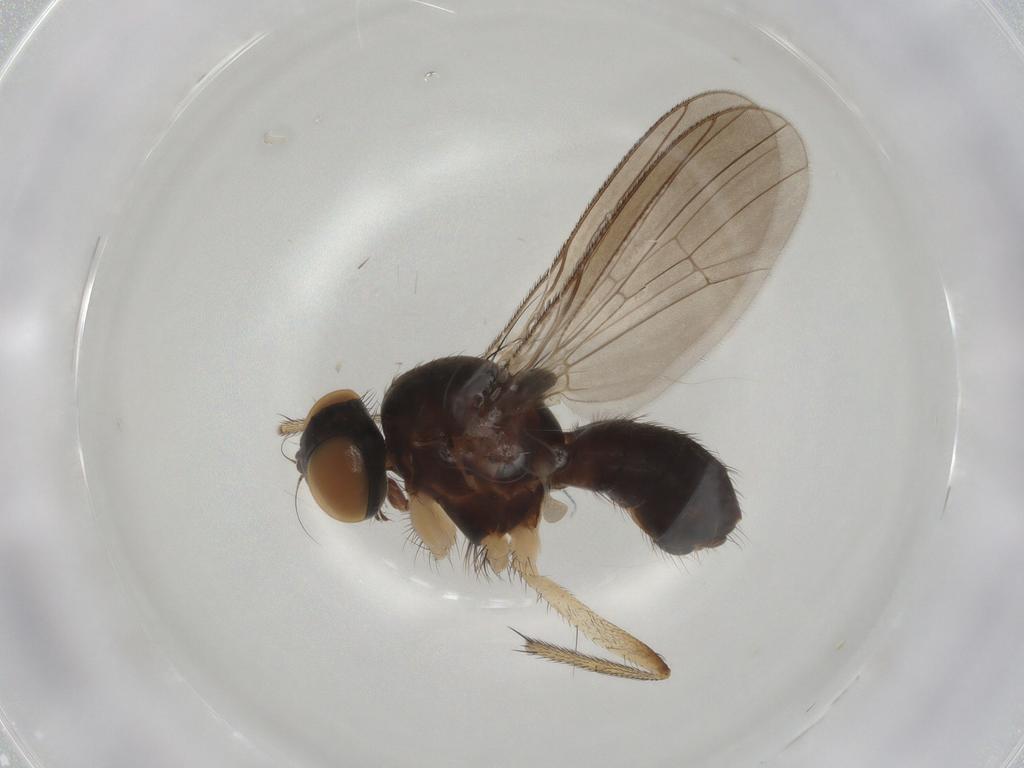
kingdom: Animalia
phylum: Arthropoda
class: Insecta
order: Diptera
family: Muscidae
